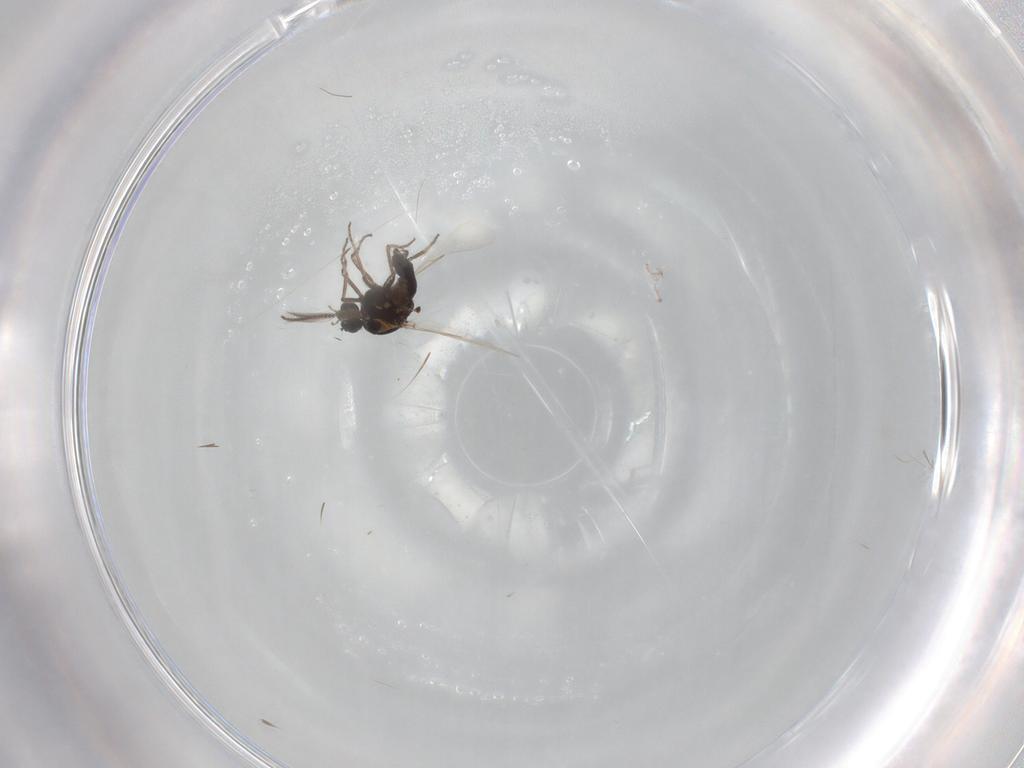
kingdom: Animalia
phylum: Arthropoda
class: Insecta
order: Diptera
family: Ceratopogonidae
